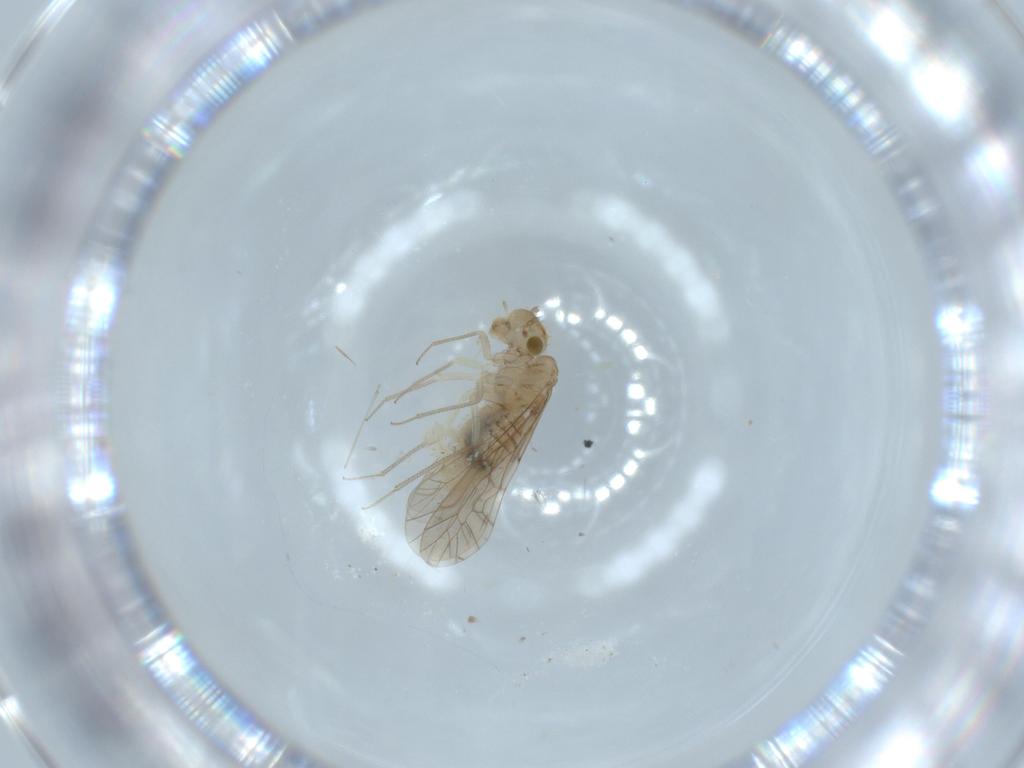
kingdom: Animalia
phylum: Arthropoda
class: Insecta
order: Psocodea
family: Lachesillidae
